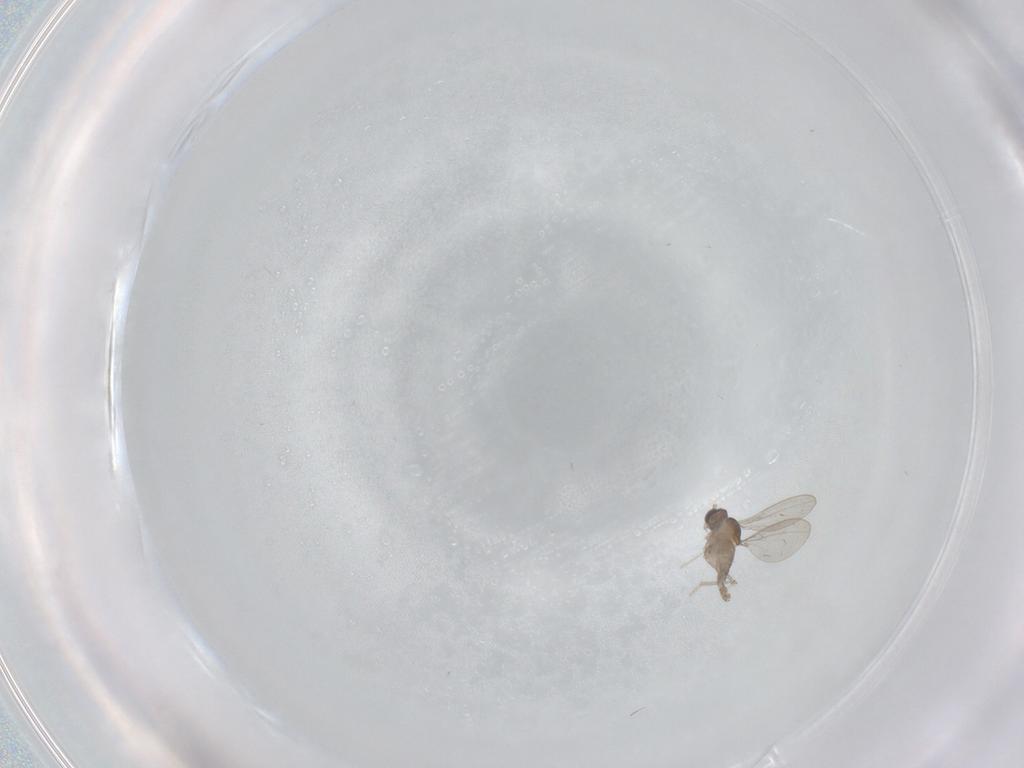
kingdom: Animalia
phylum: Arthropoda
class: Insecta
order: Diptera
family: Cecidomyiidae
